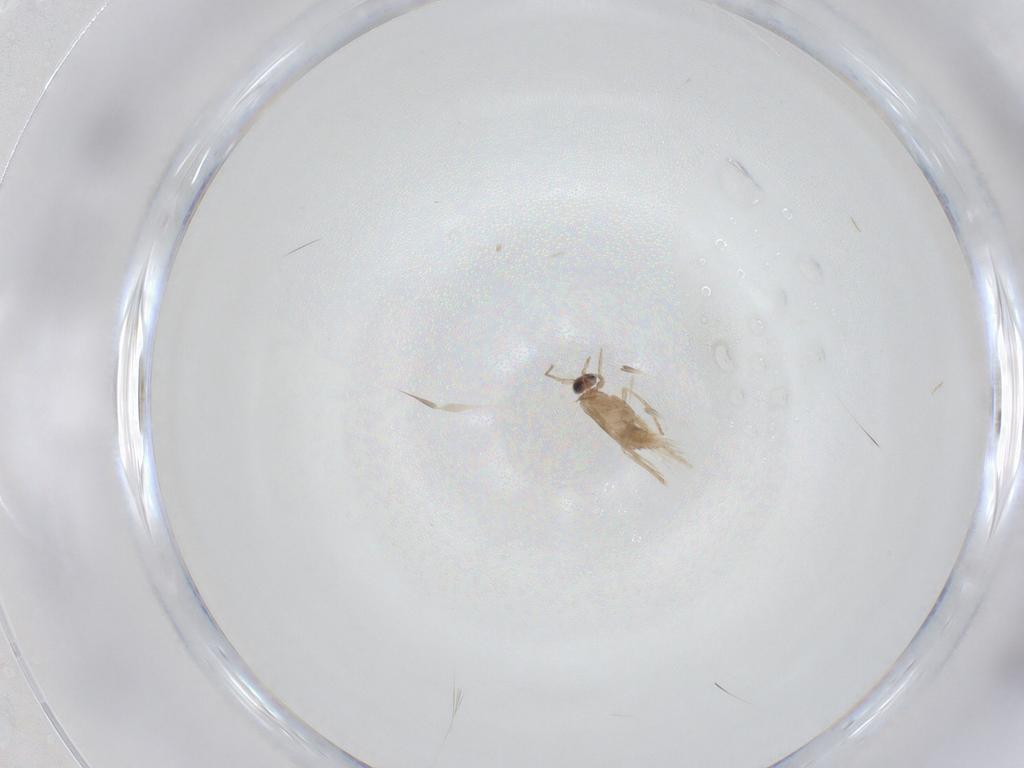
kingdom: Animalia
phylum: Arthropoda
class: Insecta
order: Lepidoptera
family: Nepticulidae
